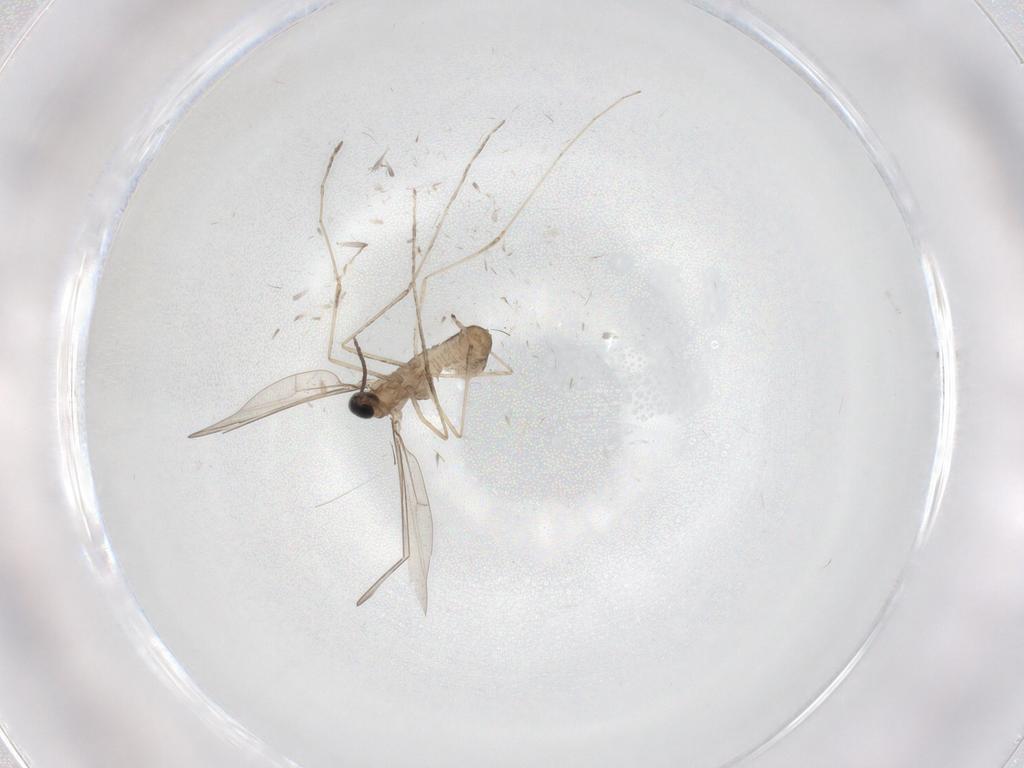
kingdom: Animalia
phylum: Arthropoda
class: Insecta
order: Diptera
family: Cecidomyiidae
